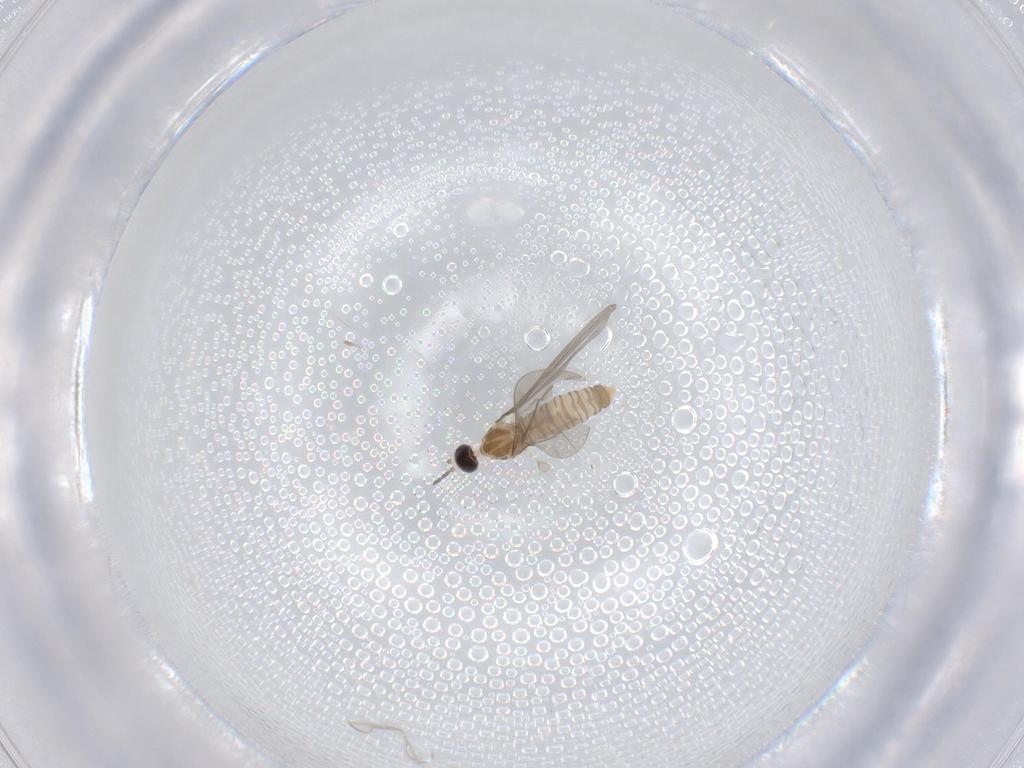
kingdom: Animalia
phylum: Arthropoda
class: Insecta
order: Diptera
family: Cecidomyiidae
